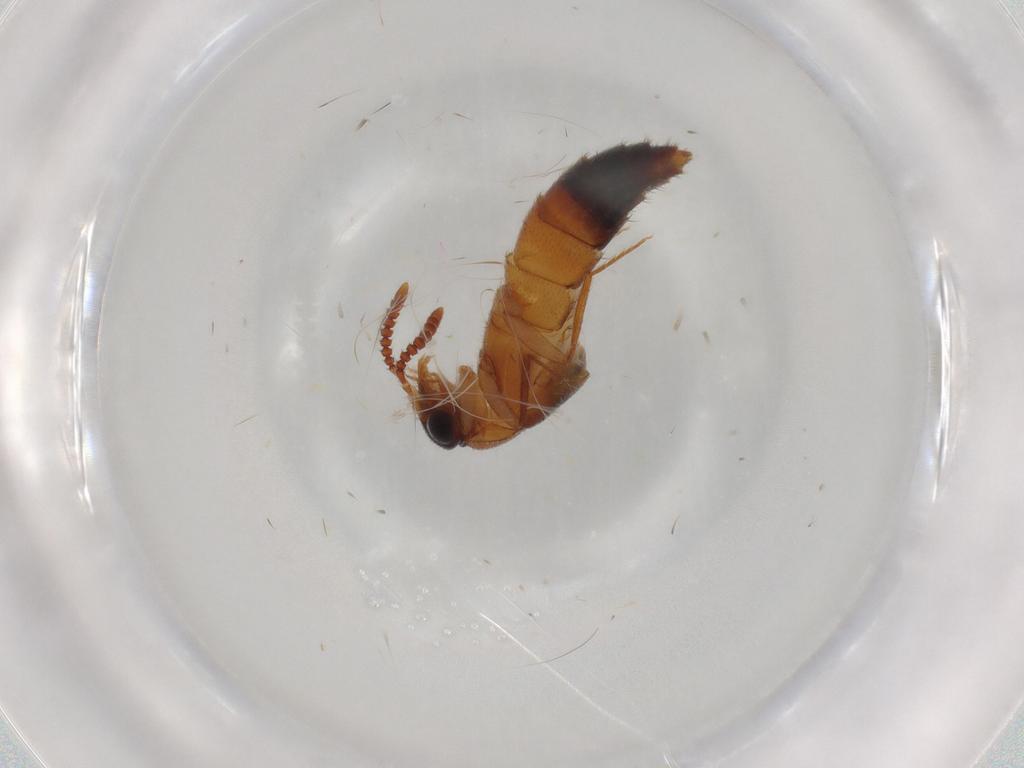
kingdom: Animalia
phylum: Arthropoda
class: Insecta
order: Coleoptera
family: Staphylinidae
